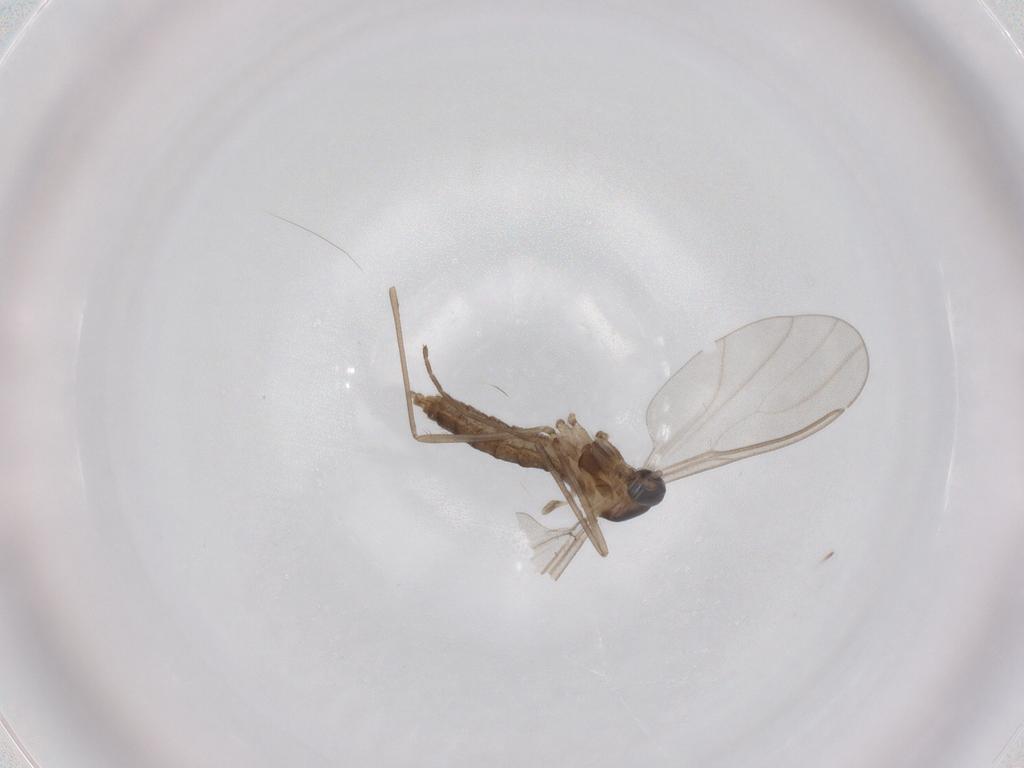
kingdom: Animalia
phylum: Arthropoda
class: Insecta
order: Diptera
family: Cecidomyiidae
